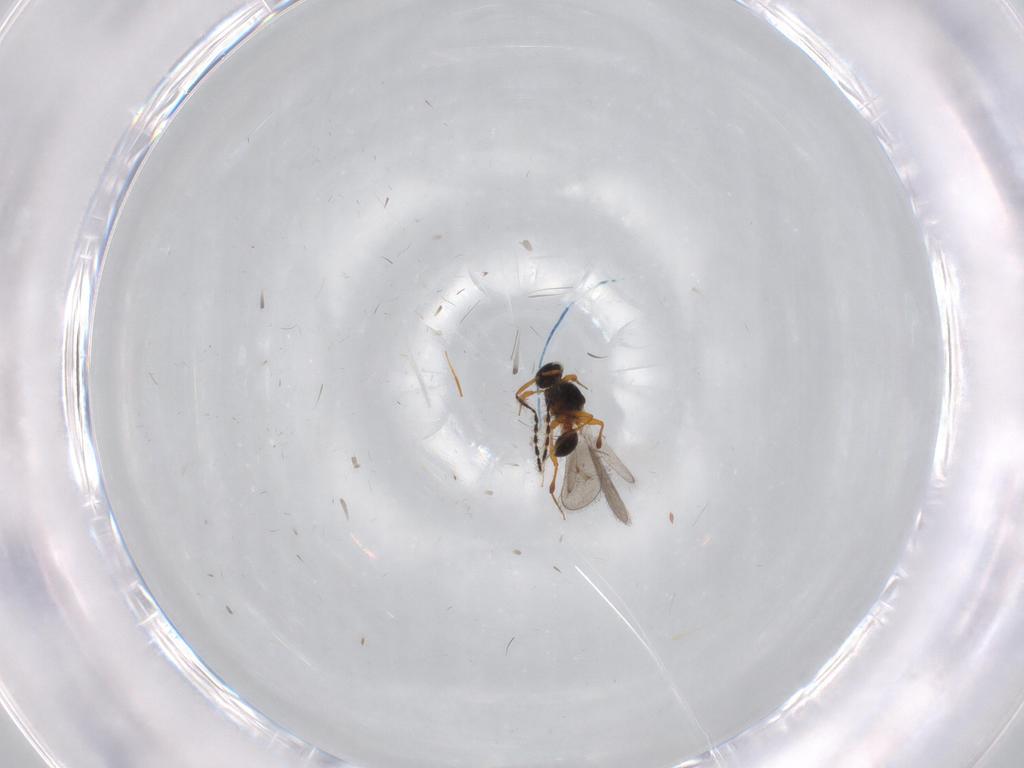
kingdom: Animalia
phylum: Arthropoda
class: Insecta
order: Hymenoptera
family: Platygastridae
